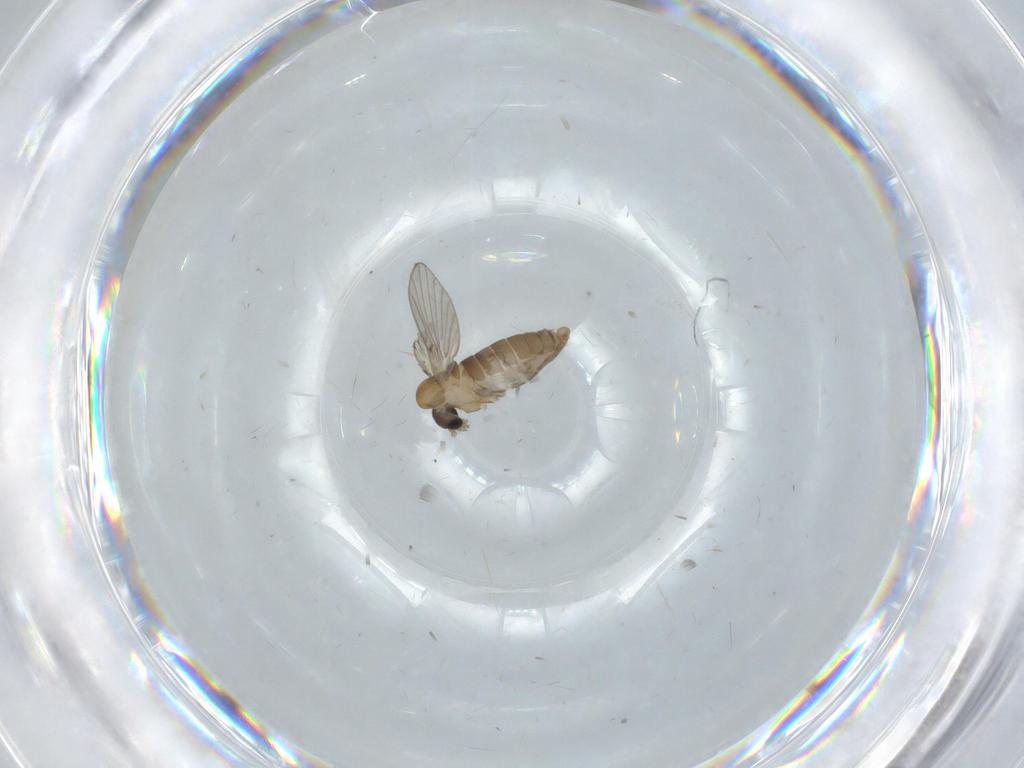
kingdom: Animalia
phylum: Arthropoda
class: Insecta
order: Diptera
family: Psychodidae
